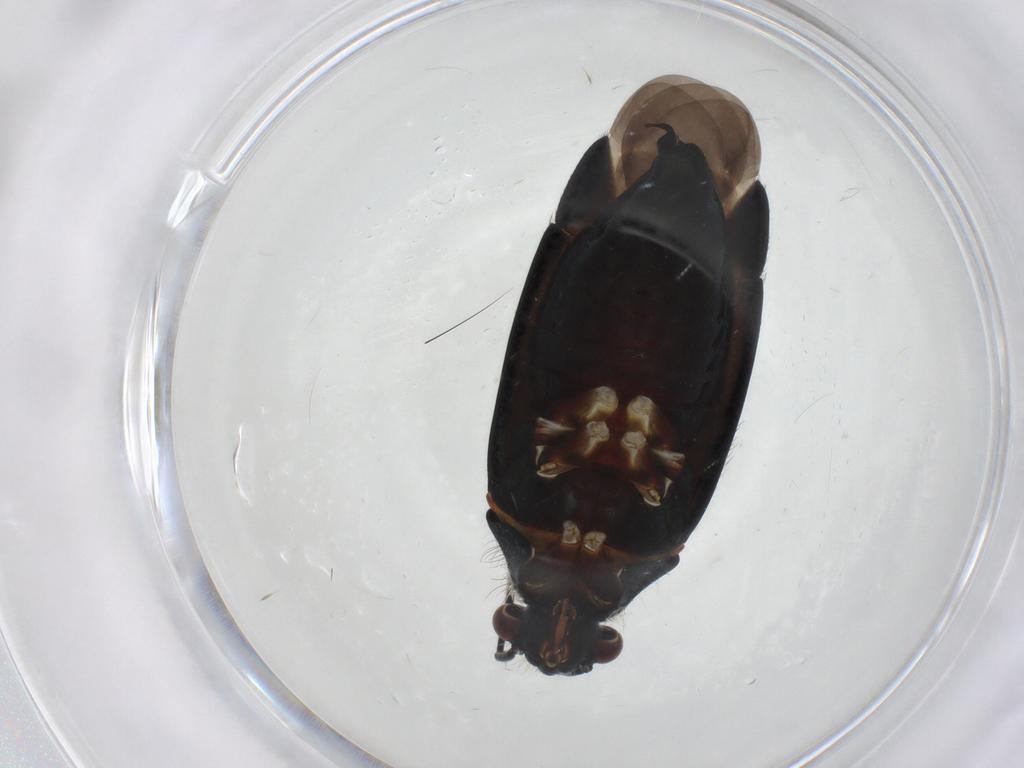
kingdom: Animalia
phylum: Arthropoda
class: Insecta
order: Hemiptera
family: Miridae
